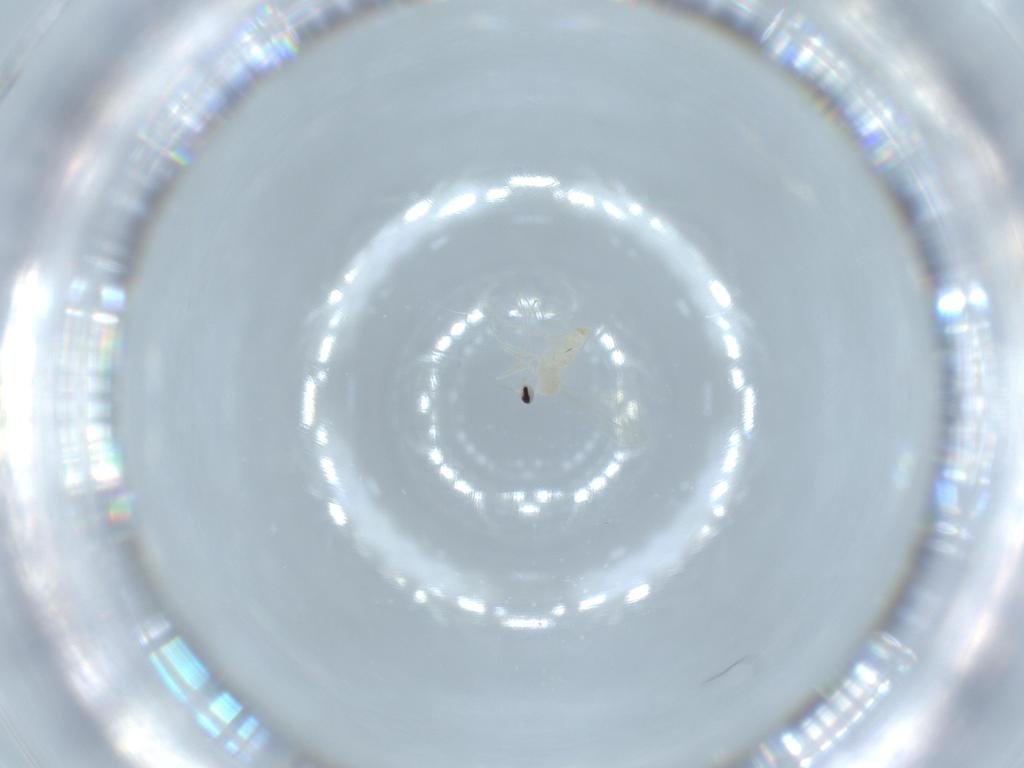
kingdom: Animalia
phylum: Arthropoda
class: Insecta
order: Diptera
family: Cecidomyiidae
